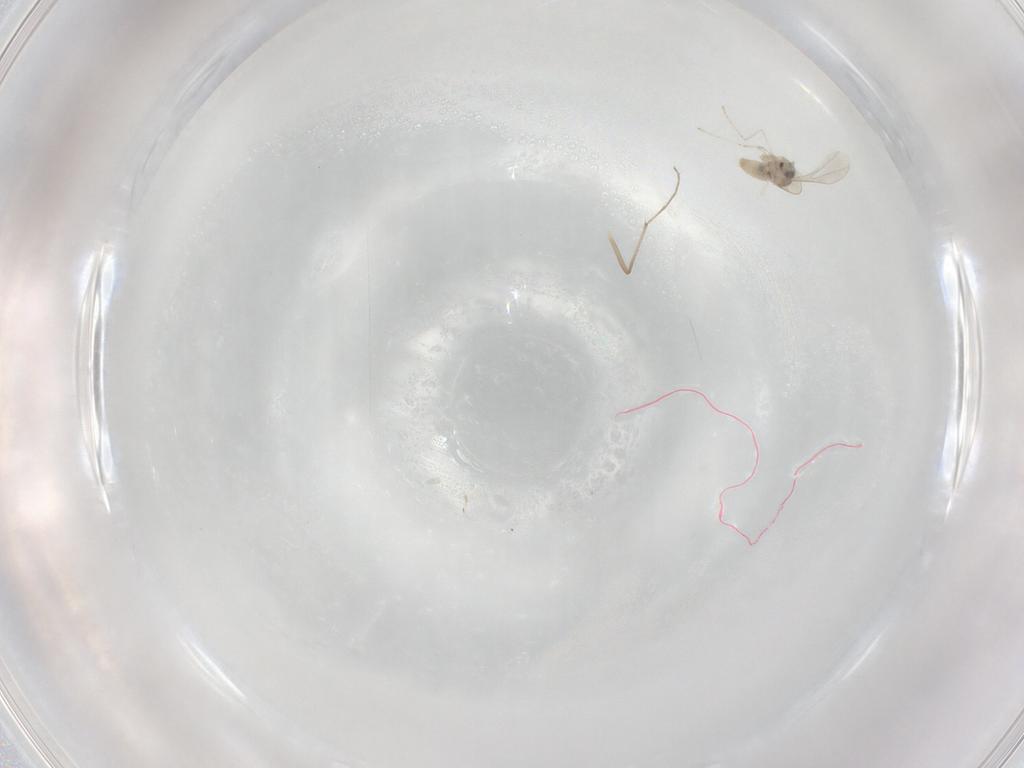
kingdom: Animalia
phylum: Arthropoda
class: Insecta
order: Diptera
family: Cecidomyiidae
